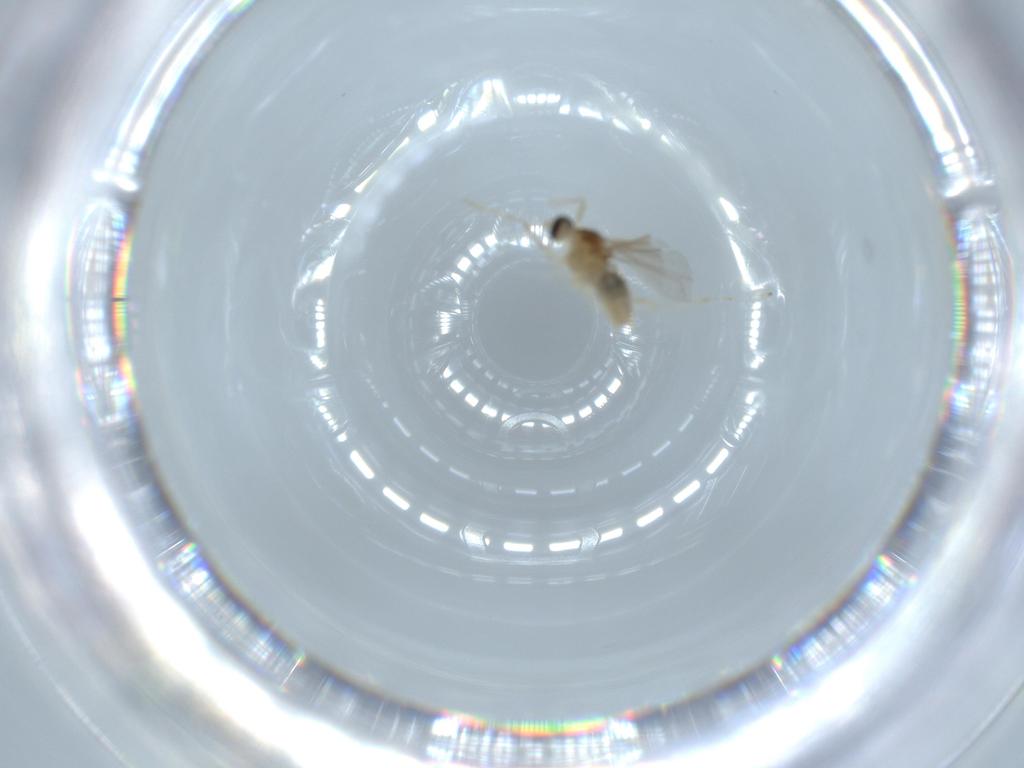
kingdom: Animalia
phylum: Arthropoda
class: Insecta
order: Diptera
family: Cecidomyiidae
